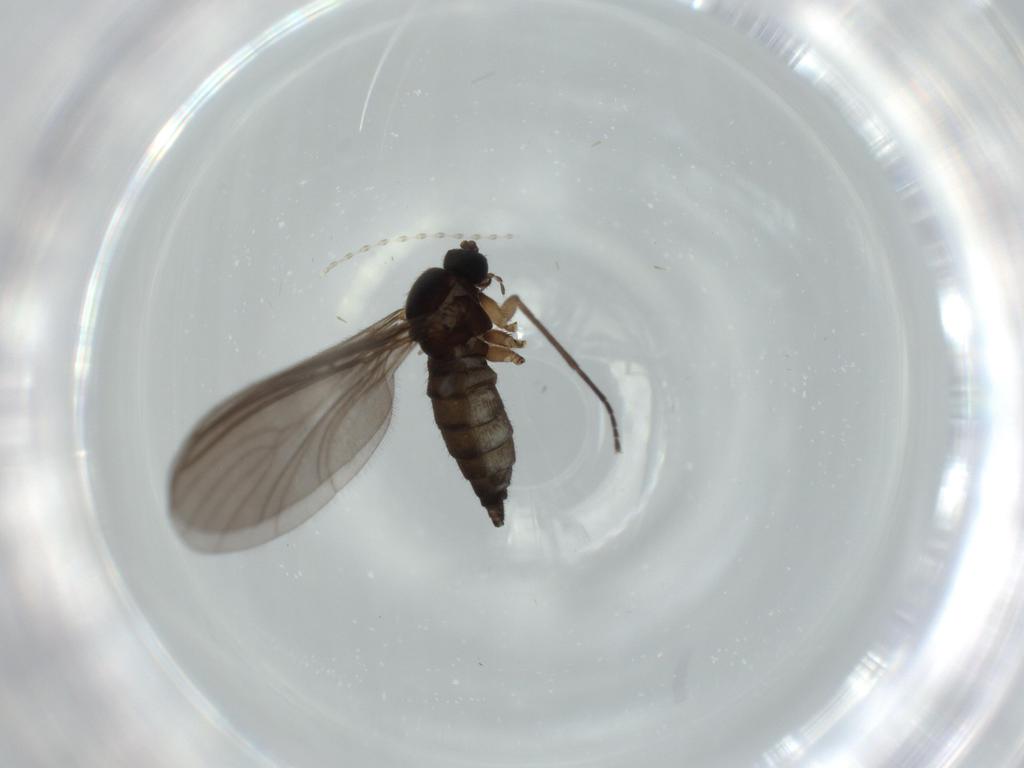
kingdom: Animalia
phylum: Arthropoda
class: Insecta
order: Diptera
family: Sciaridae
